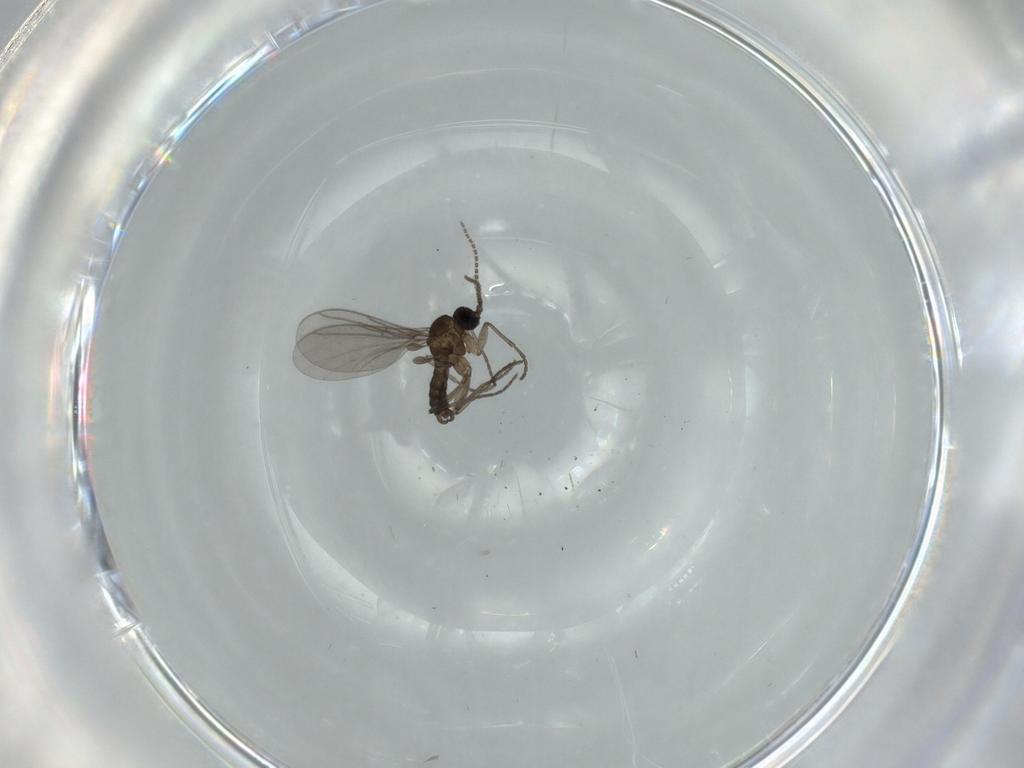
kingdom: Animalia
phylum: Arthropoda
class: Insecta
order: Diptera
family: Sciaridae
